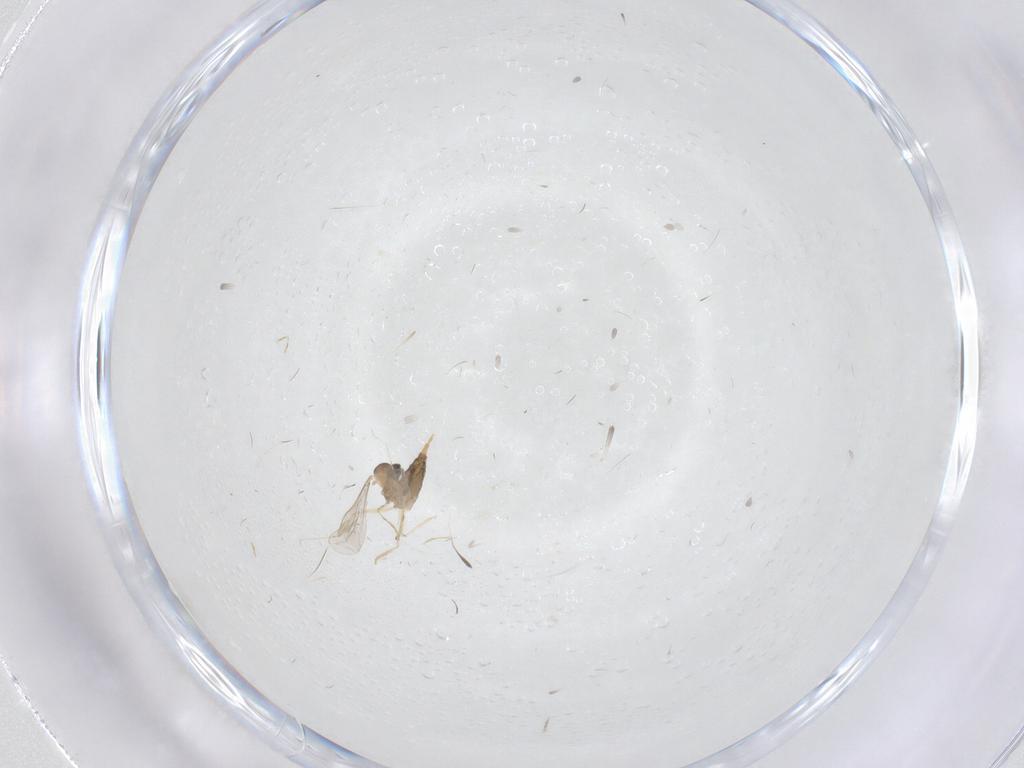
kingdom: Animalia
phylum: Arthropoda
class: Insecta
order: Diptera
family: Cecidomyiidae
